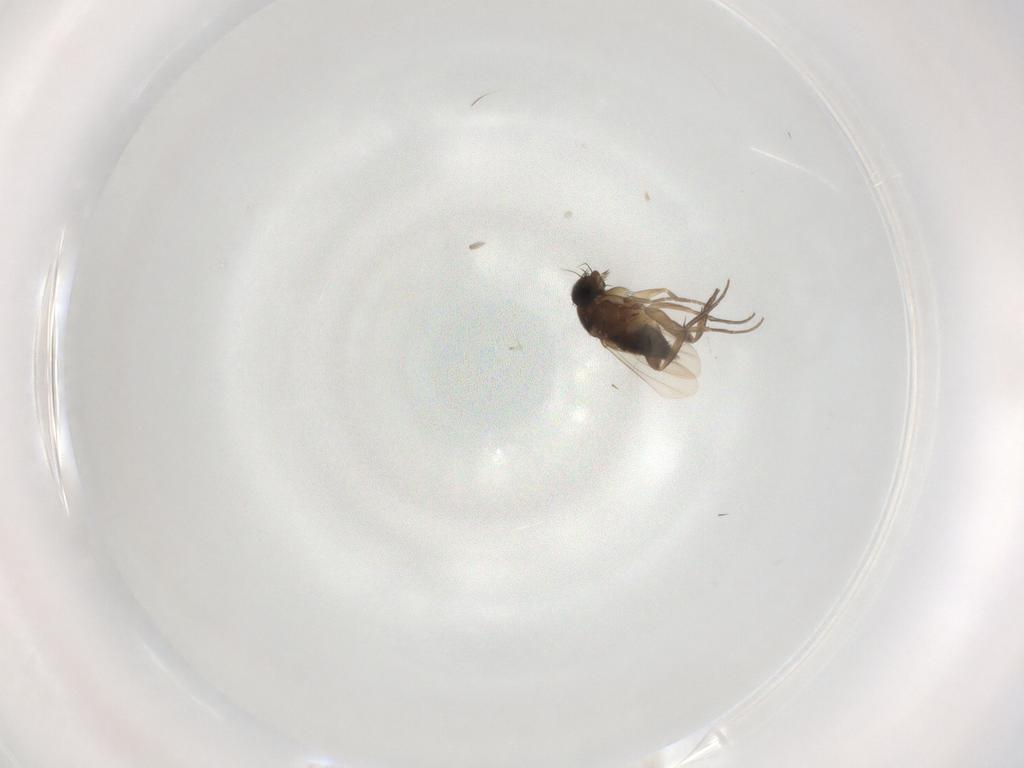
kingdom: Animalia
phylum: Arthropoda
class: Insecta
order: Diptera
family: Phoridae
